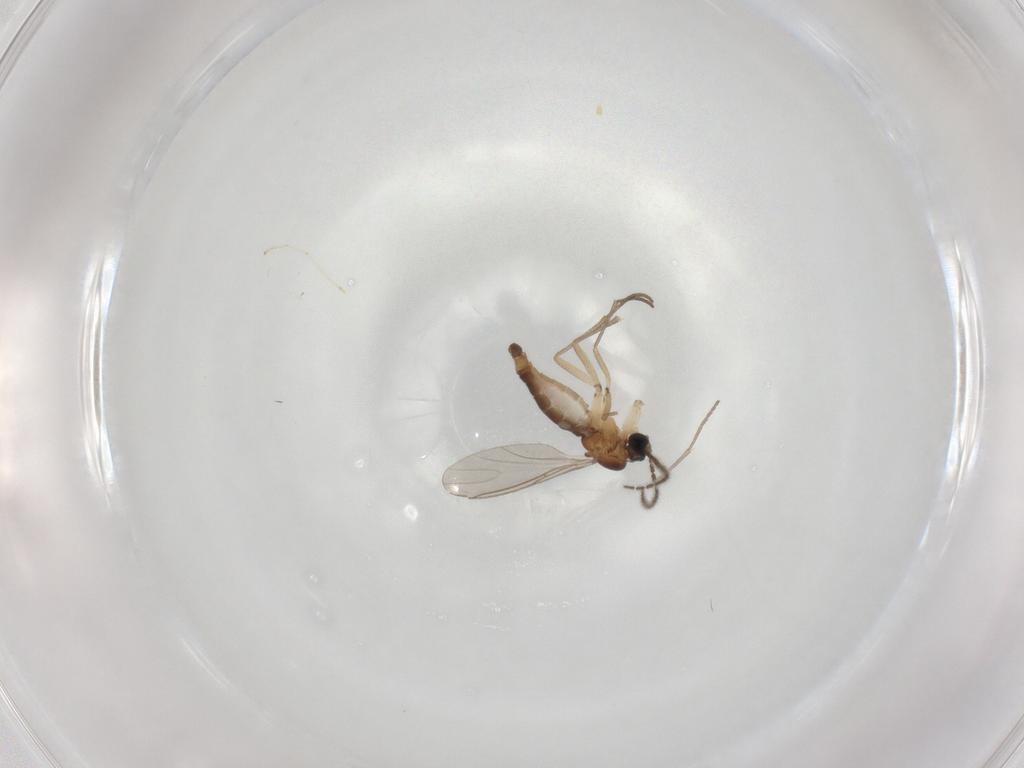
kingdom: Animalia
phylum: Arthropoda
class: Insecta
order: Diptera
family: Sciaridae
